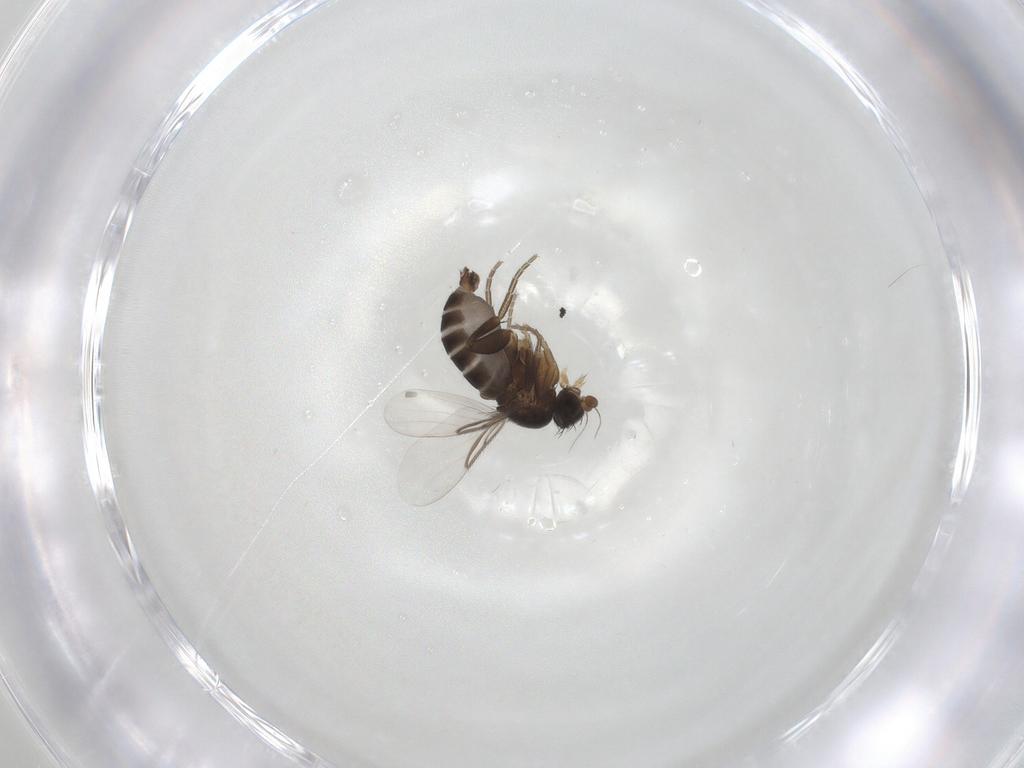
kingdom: Animalia
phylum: Arthropoda
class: Insecta
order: Diptera
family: Phoridae
